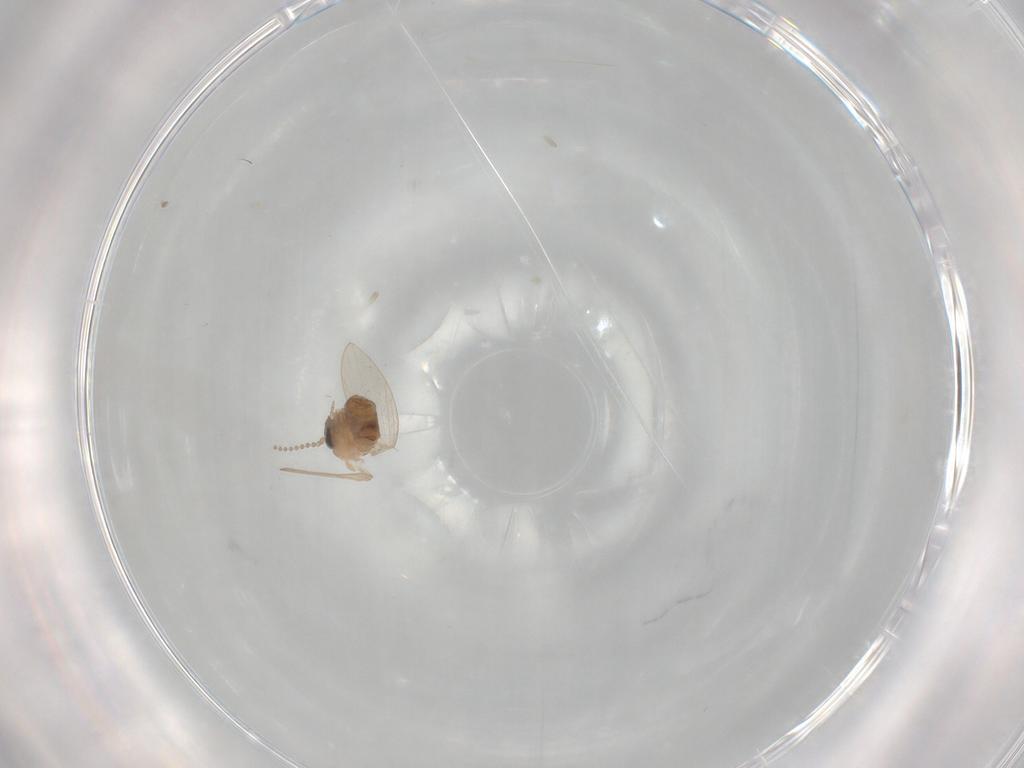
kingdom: Animalia
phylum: Arthropoda
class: Insecta
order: Diptera
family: Psychodidae
